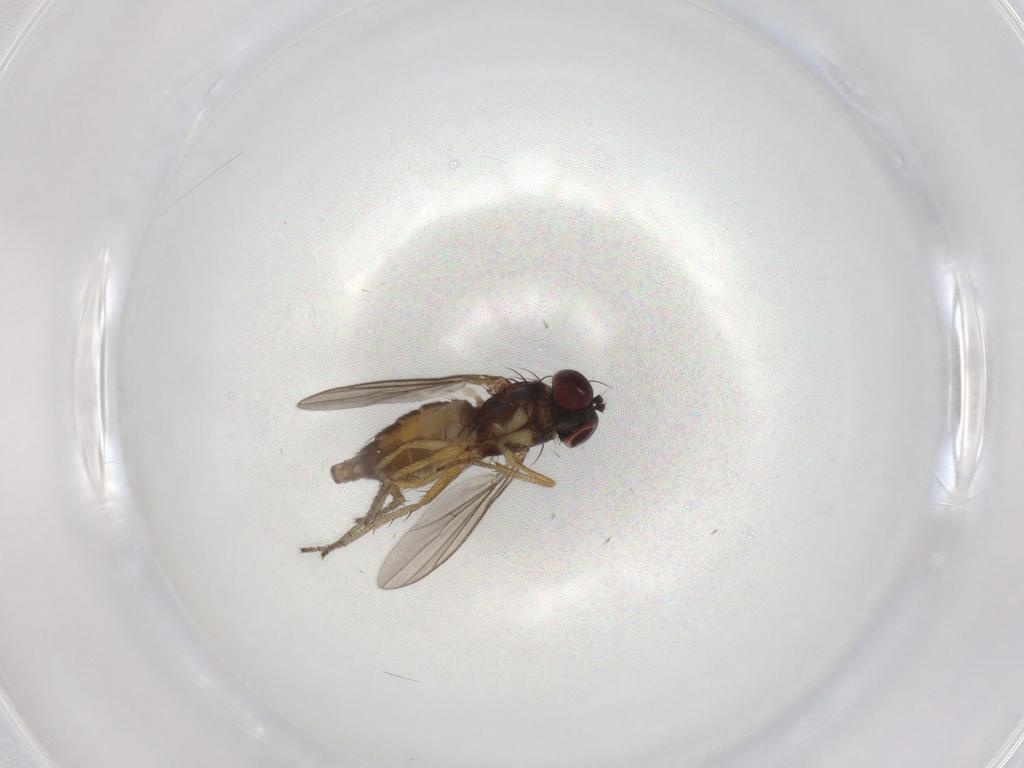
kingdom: Animalia
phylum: Arthropoda
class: Insecta
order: Diptera
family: Dolichopodidae
